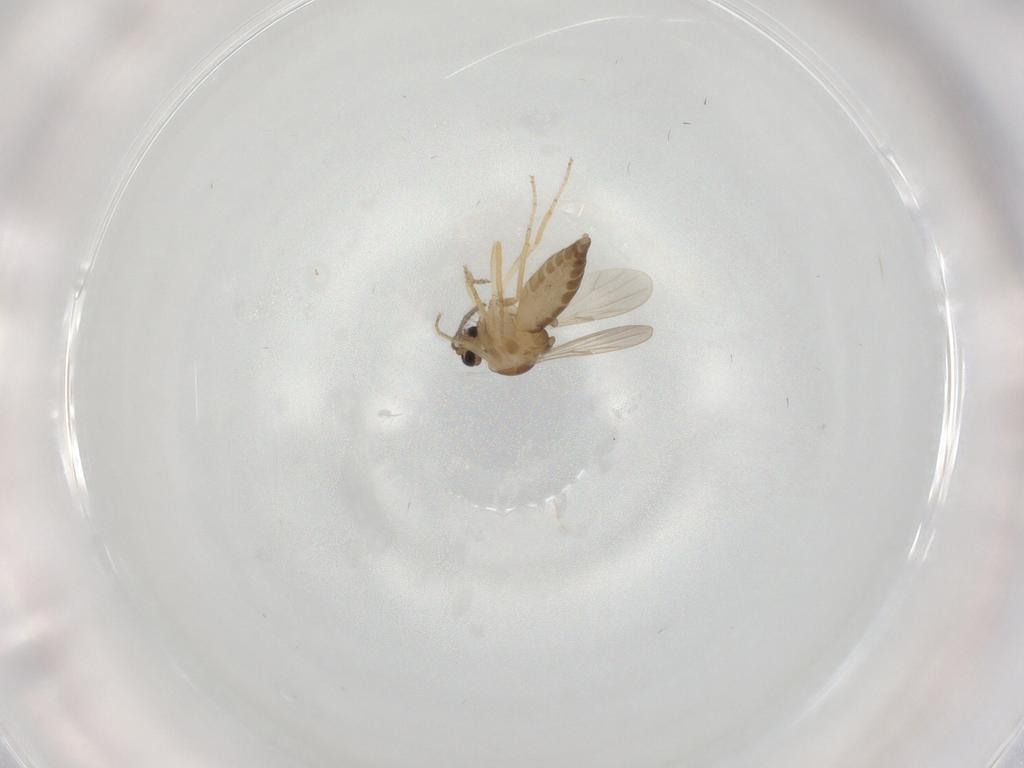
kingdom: Animalia
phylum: Arthropoda
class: Insecta
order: Diptera
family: Ceratopogonidae
